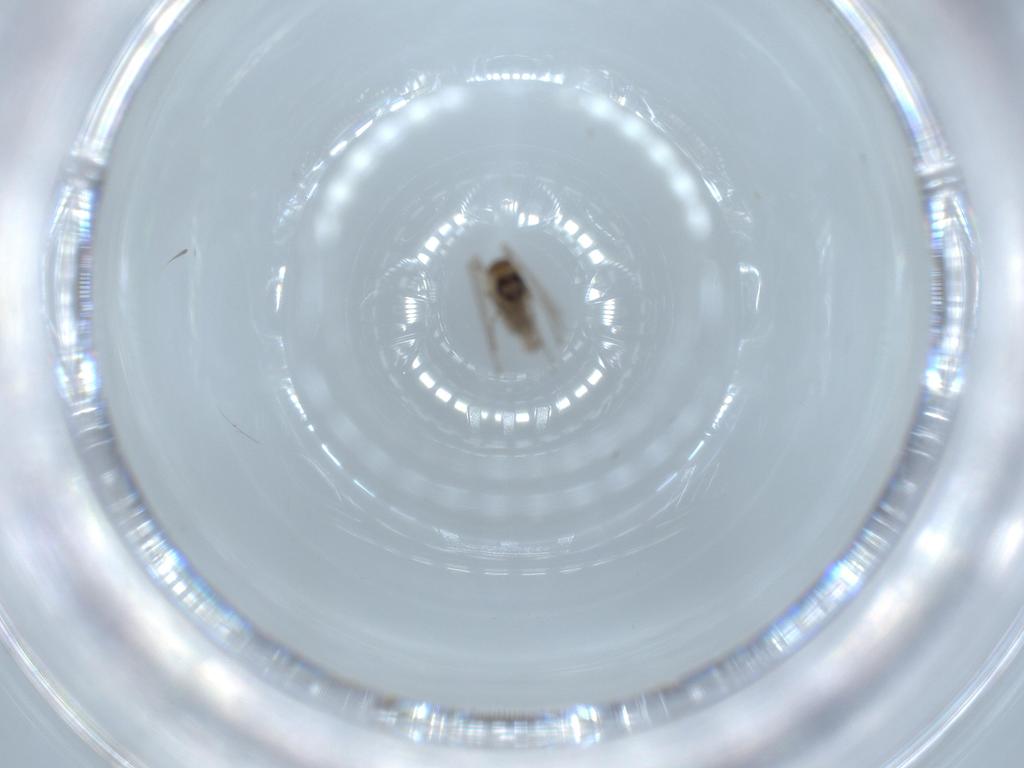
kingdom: Animalia
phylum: Arthropoda
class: Insecta
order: Diptera
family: Psychodidae
